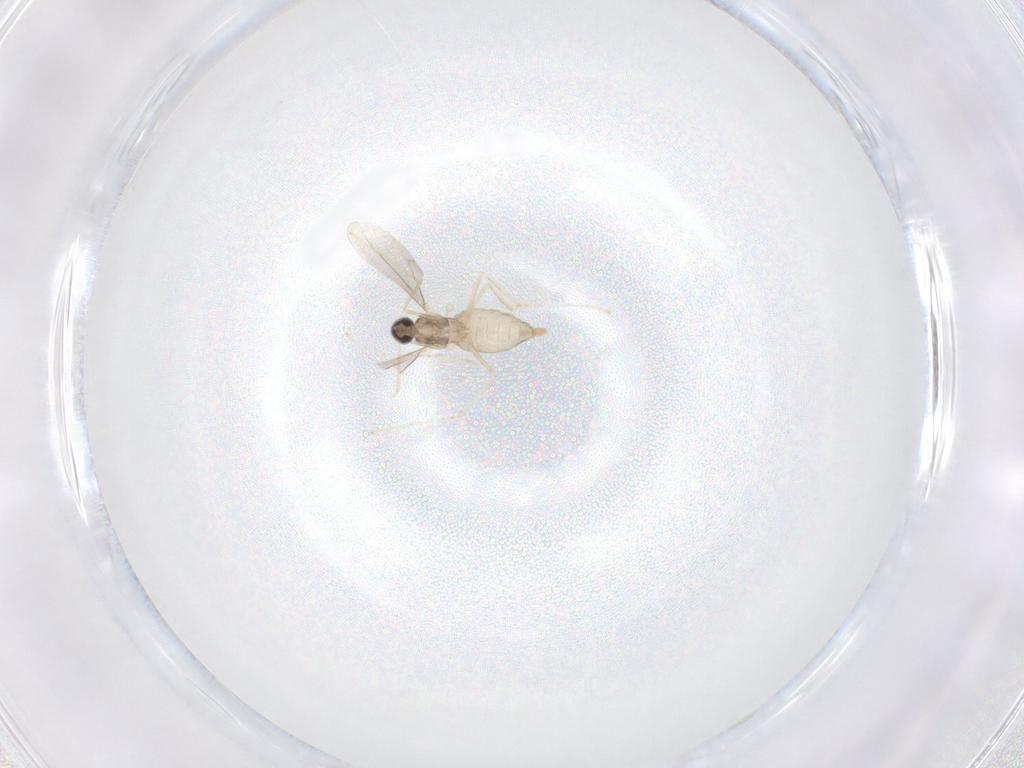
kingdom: Animalia
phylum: Arthropoda
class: Insecta
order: Diptera
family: Cecidomyiidae
